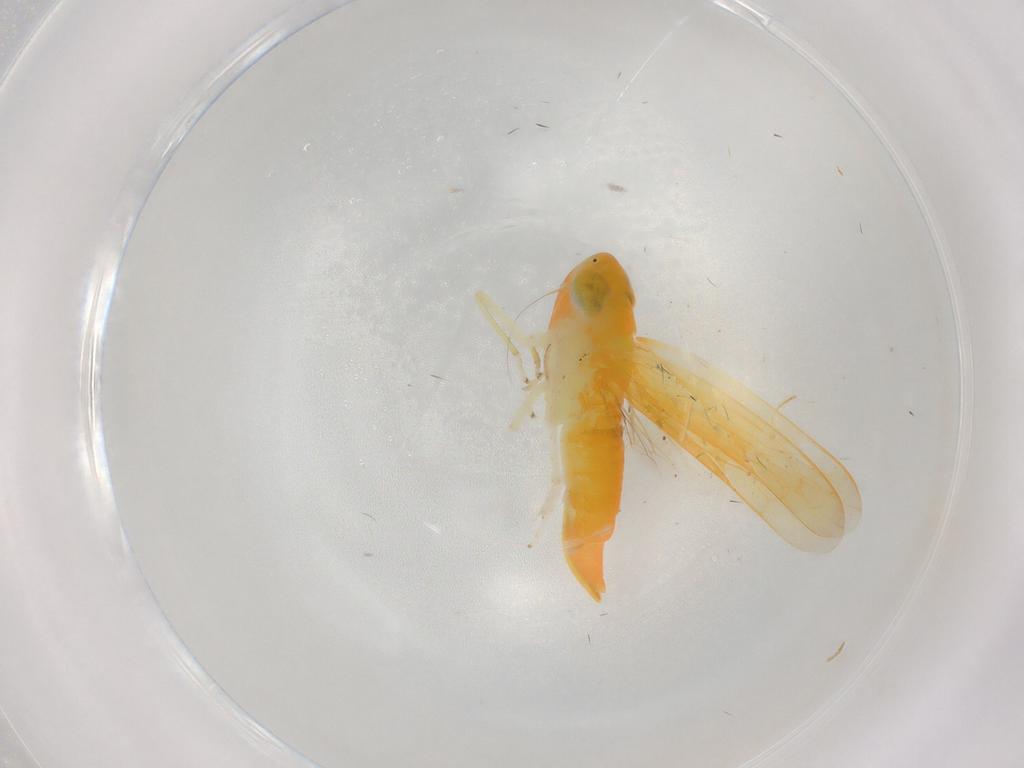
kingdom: Animalia
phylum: Arthropoda
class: Insecta
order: Hemiptera
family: Cicadellidae
